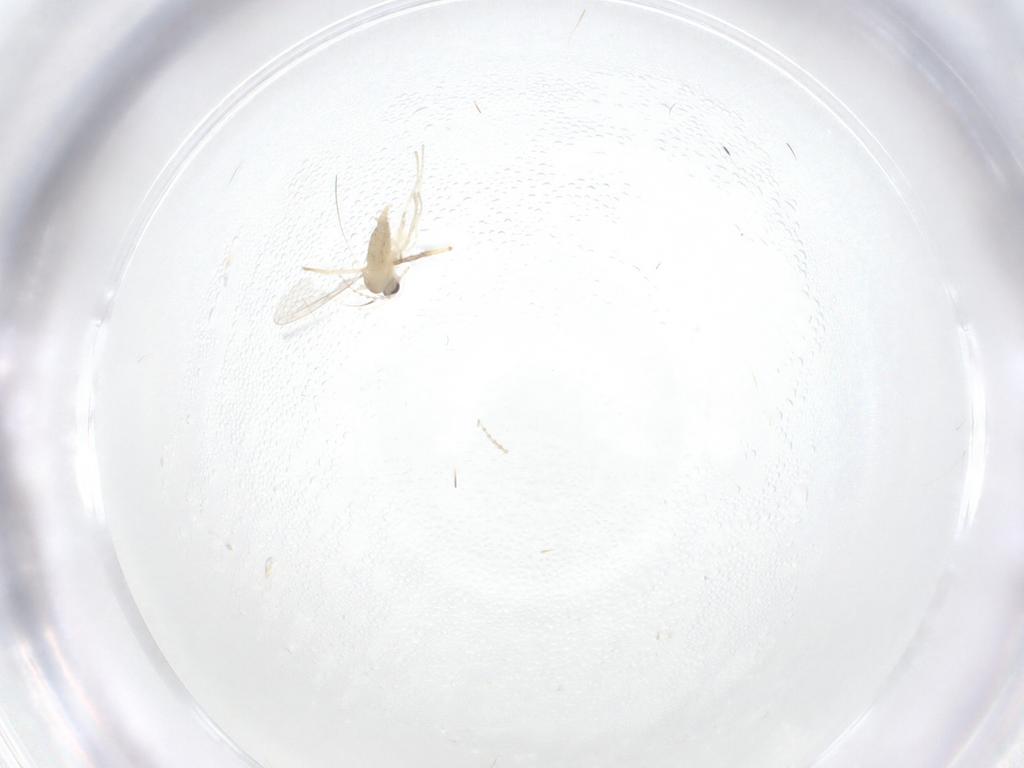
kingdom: Animalia
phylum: Arthropoda
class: Insecta
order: Diptera
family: Cecidomyiidae
